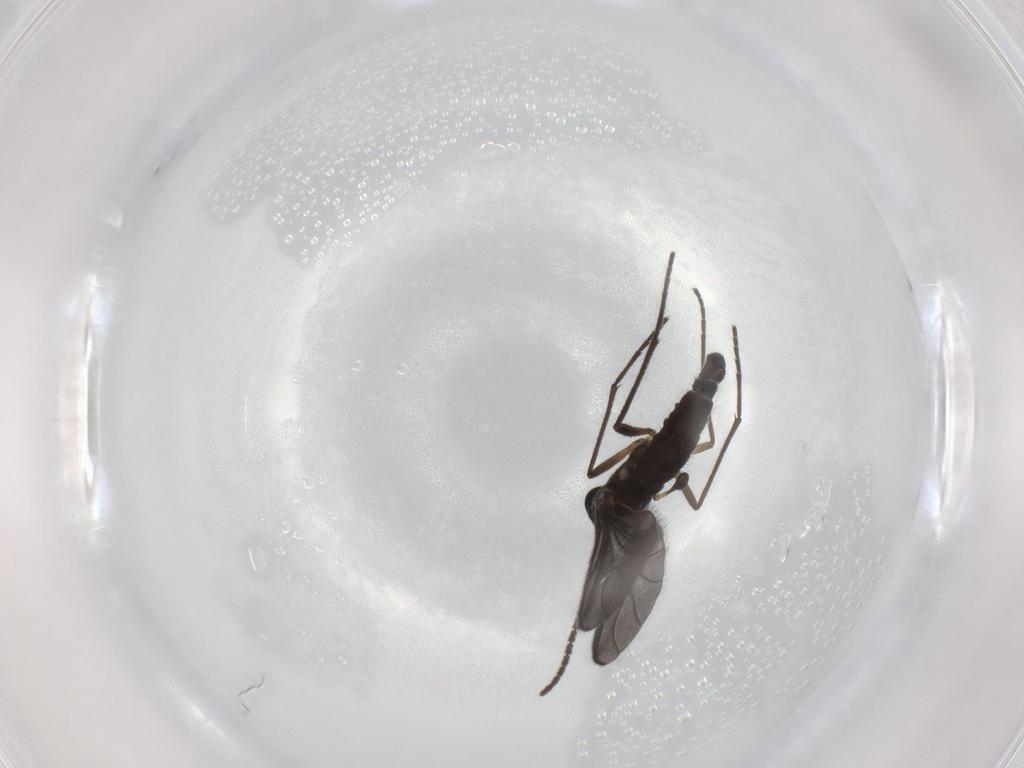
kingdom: Animalia
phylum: Arthropoda
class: Insecta
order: Diptera
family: Sciaridae
